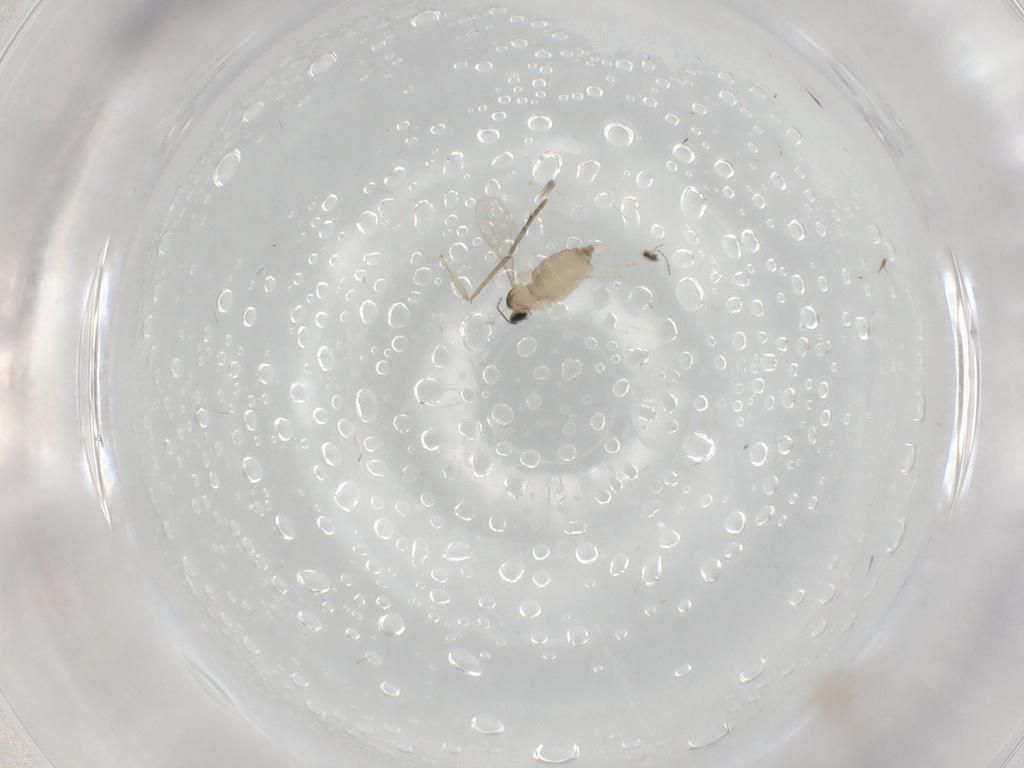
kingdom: Animalia
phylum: Arthropoda
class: Insecta
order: Diptera
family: Cecidomyiidae
